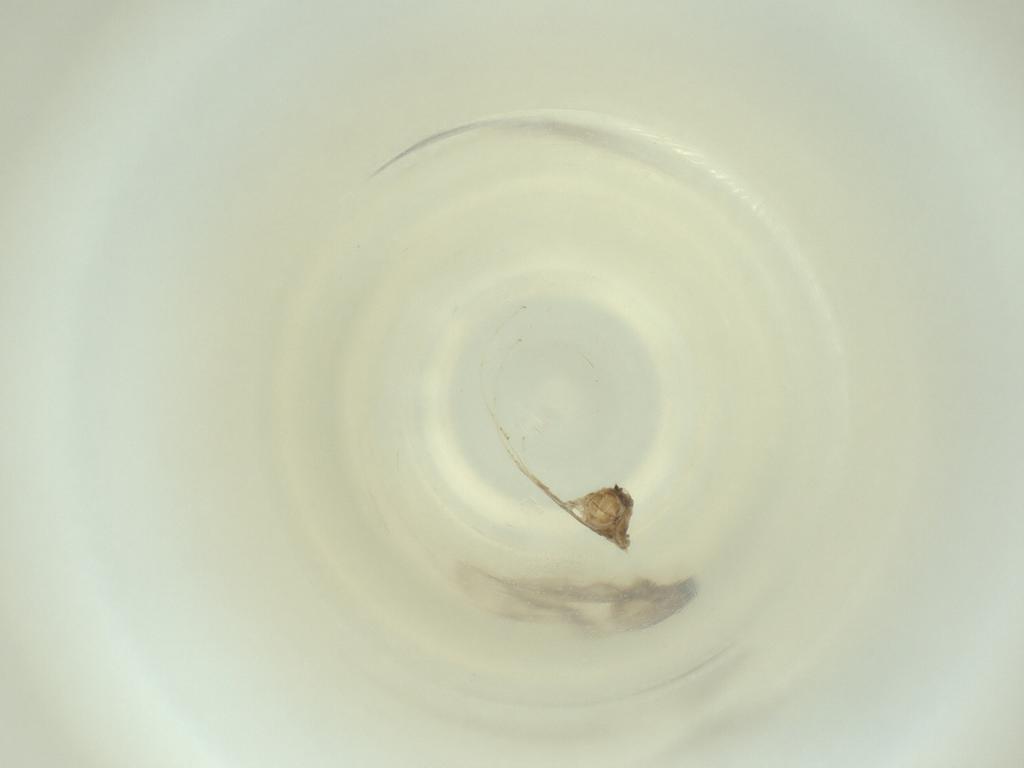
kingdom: Animalia
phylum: Arthropoda
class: Insecta
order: Diptera
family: Cecidomyiidae
